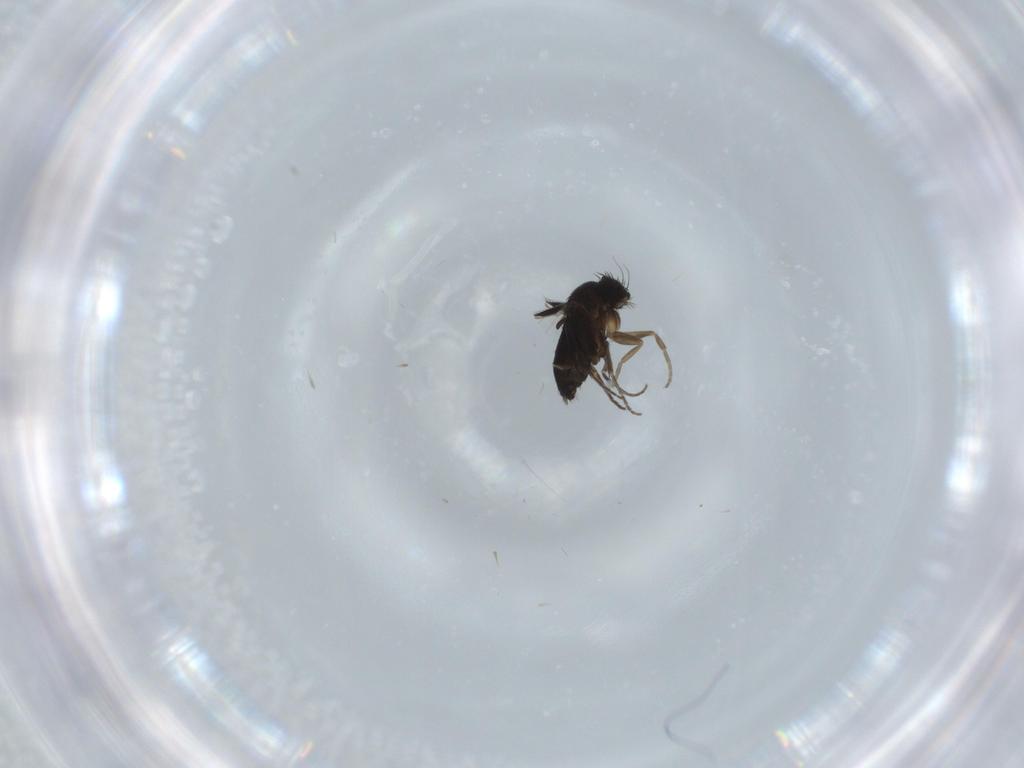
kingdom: Animalia
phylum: Arthropoda
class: Insecta
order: Diptera
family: Phoridae
